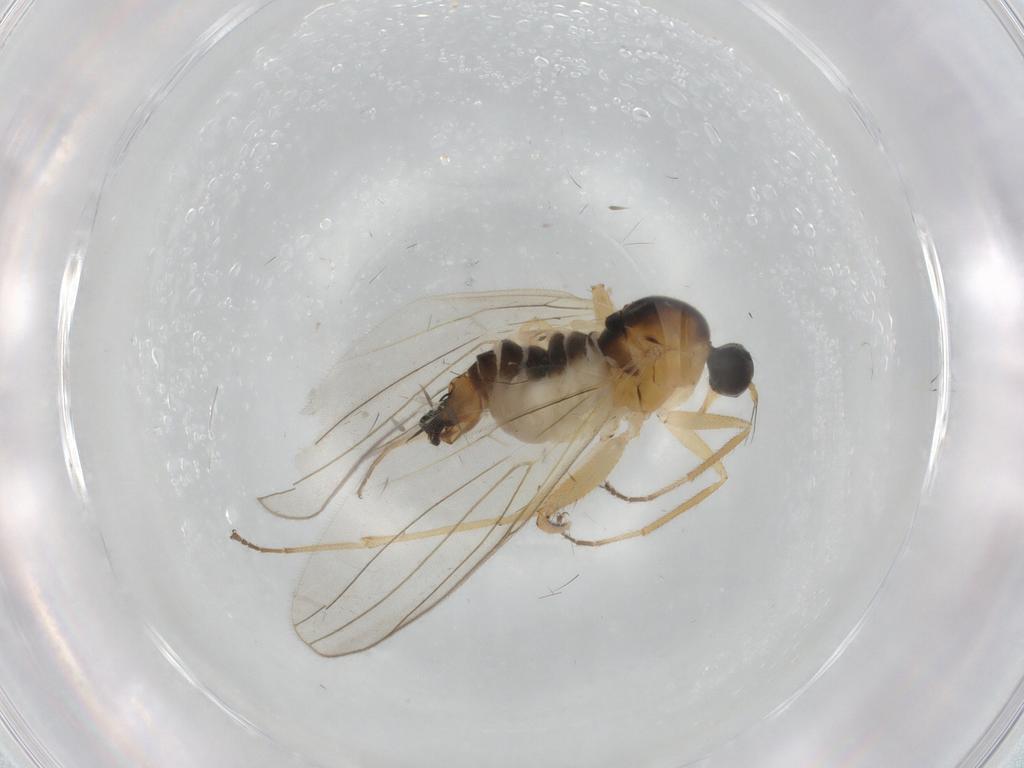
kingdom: Animalia
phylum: Arthropoda
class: Insecta
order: Diptera
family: Hybotidae
